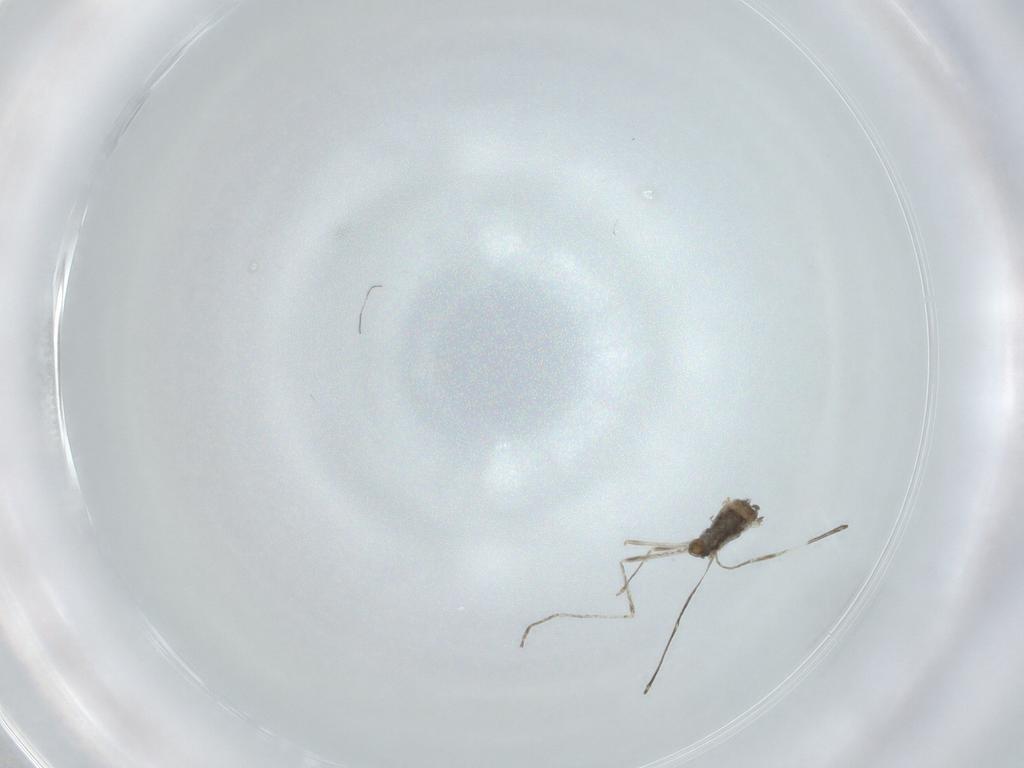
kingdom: Animalia
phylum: Arthropoda
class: Insecta
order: Diptera
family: Cecidomyiidae
